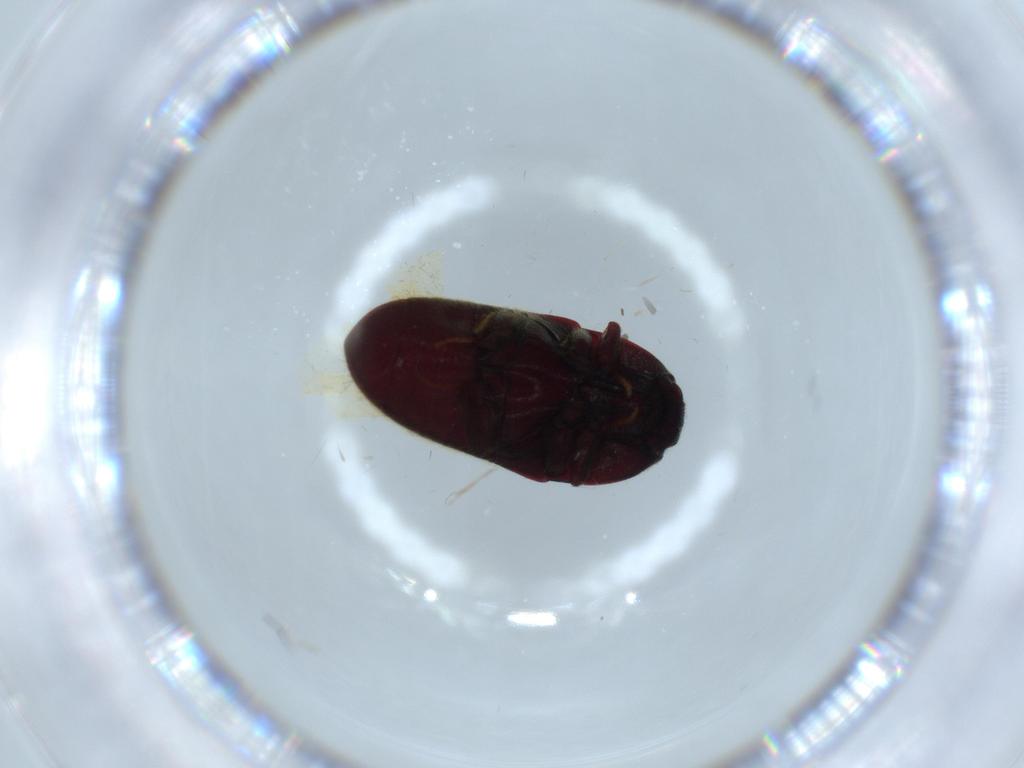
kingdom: Animalia
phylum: Arthropoda
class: Insecta
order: Coleoptera
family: Throscidae
